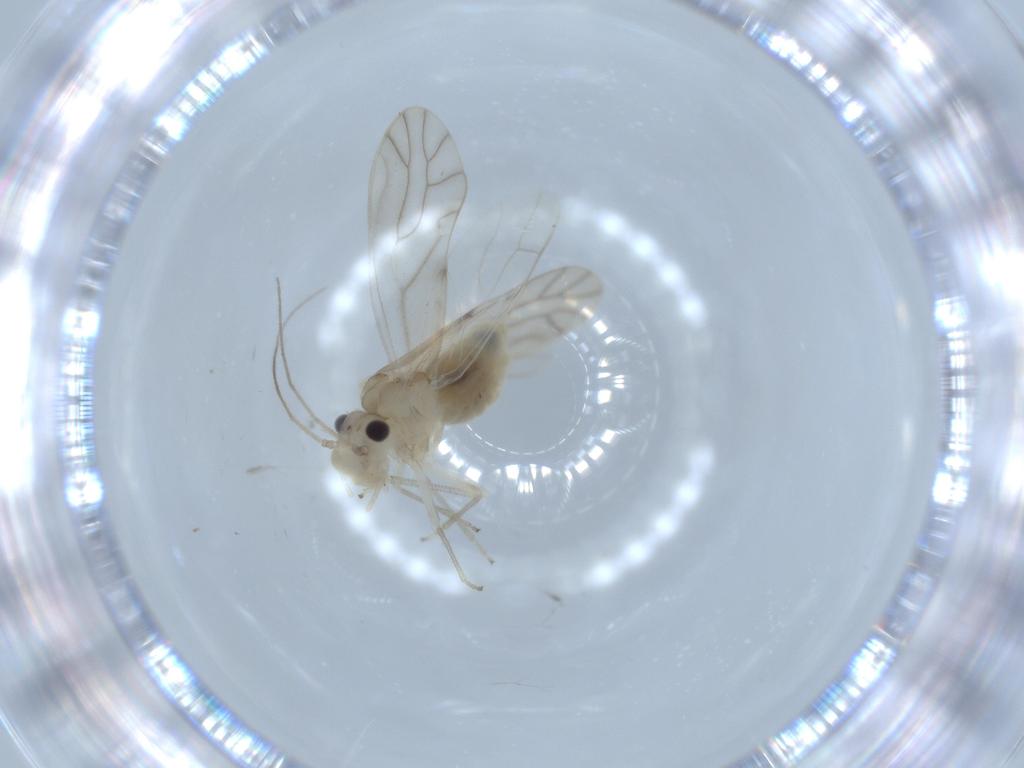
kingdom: Animalia
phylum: Arthropoda
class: Insecta
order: Psocodea
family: Caeciliusidae
